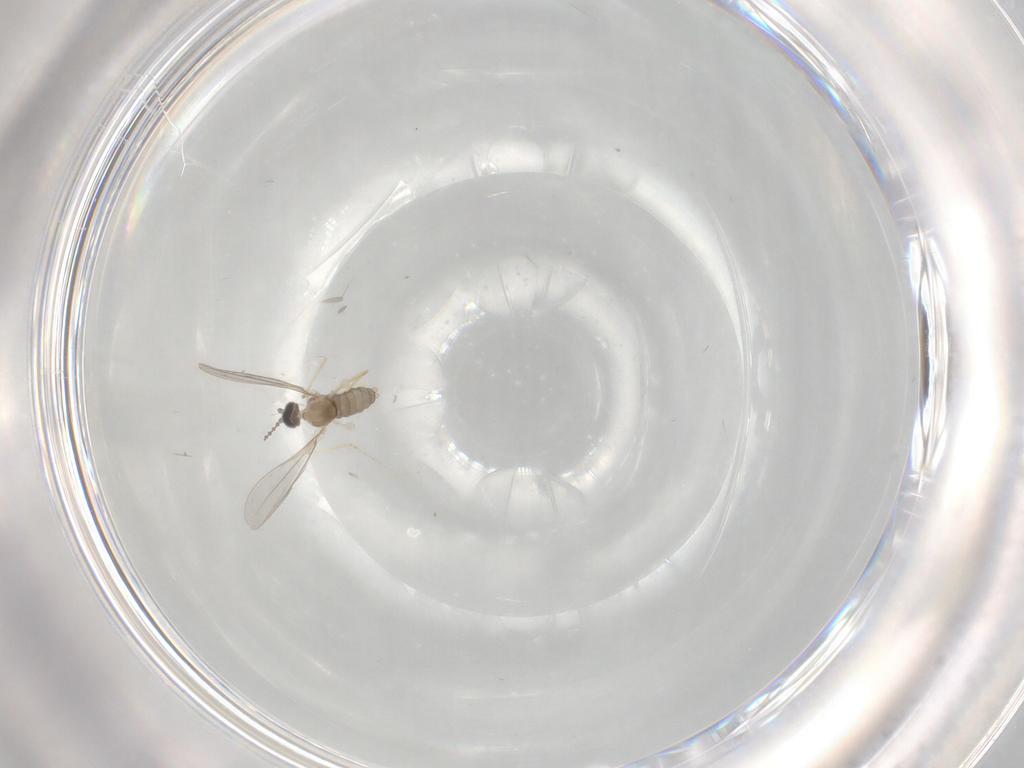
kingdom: Animalia
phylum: Arthropoda
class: Insecta
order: Diptera
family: Cecidomyiidae
